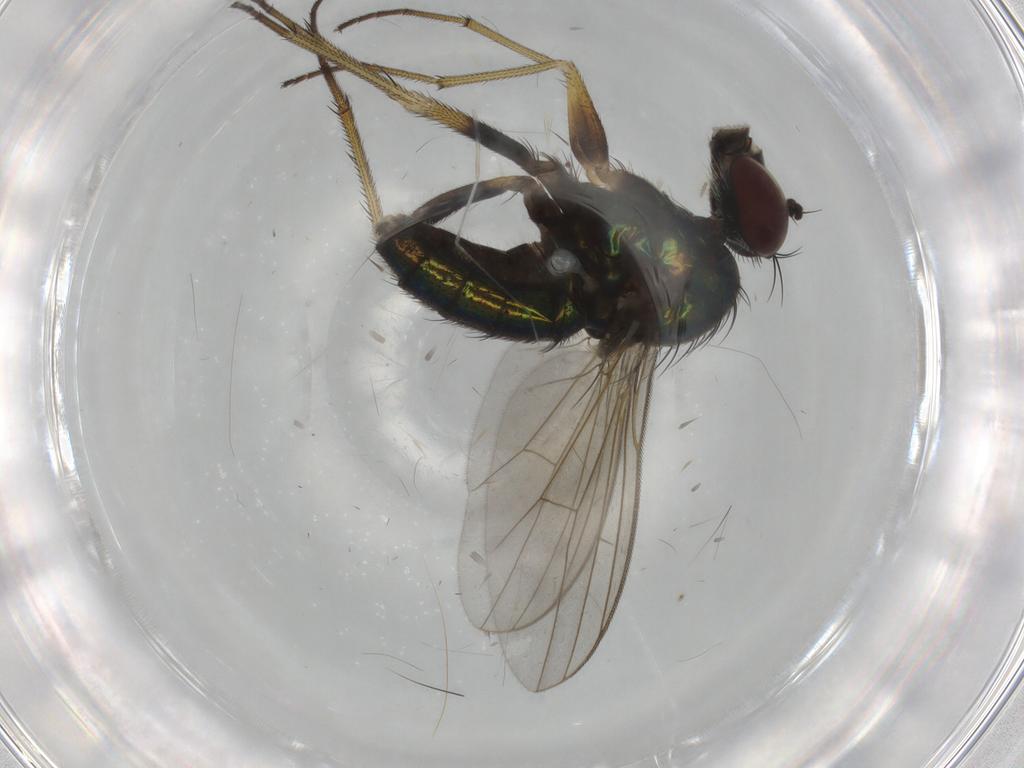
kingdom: Animalia
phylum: Arthropoda
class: Insecta
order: Diptera
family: Dolichopodidae
